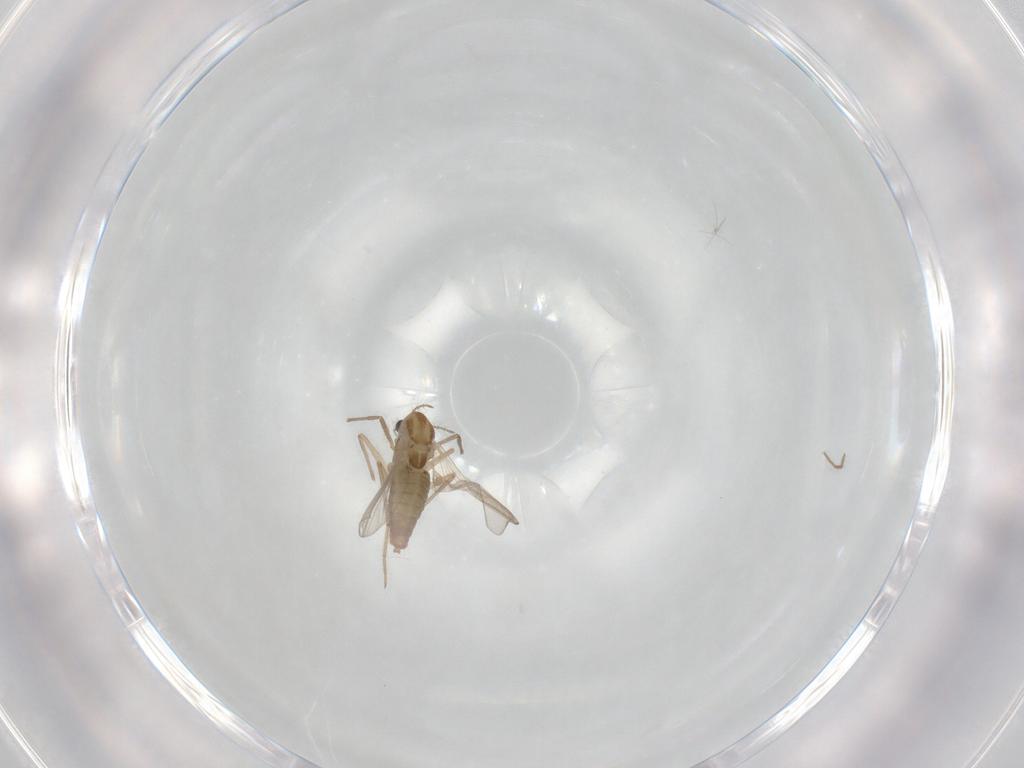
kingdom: Animalia
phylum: Arthropoda
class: Insecta
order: Diptera
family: Chironomidae
